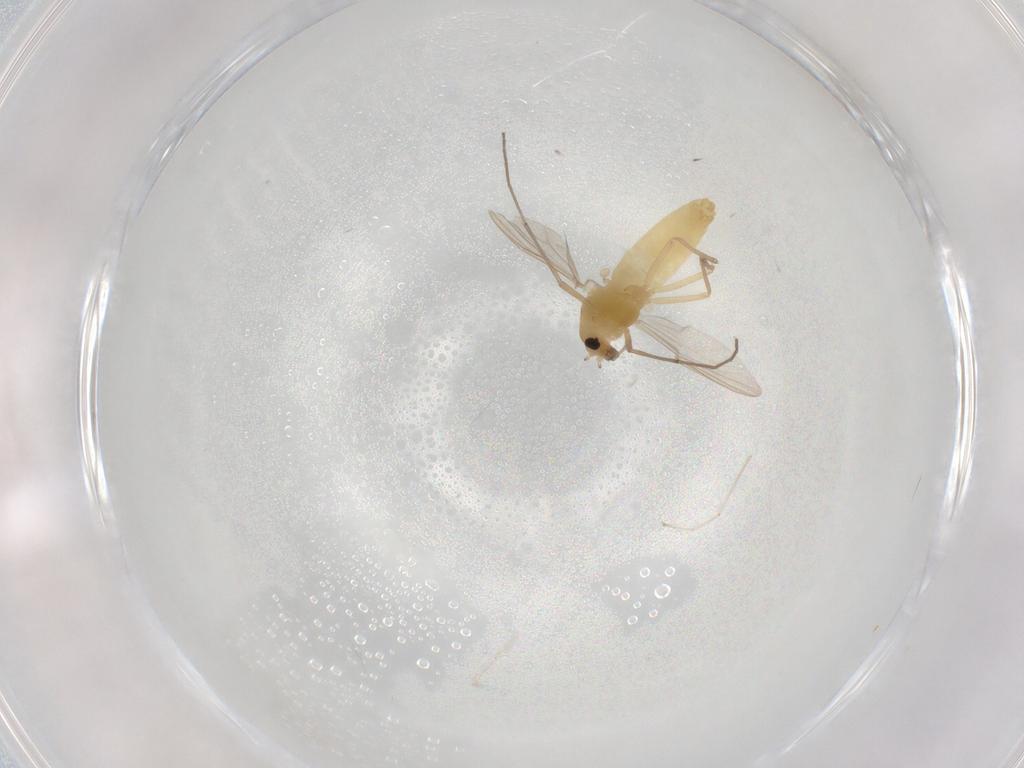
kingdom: Animalia
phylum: Arthropoda
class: Insecta
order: Diptera
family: Chironomidae
